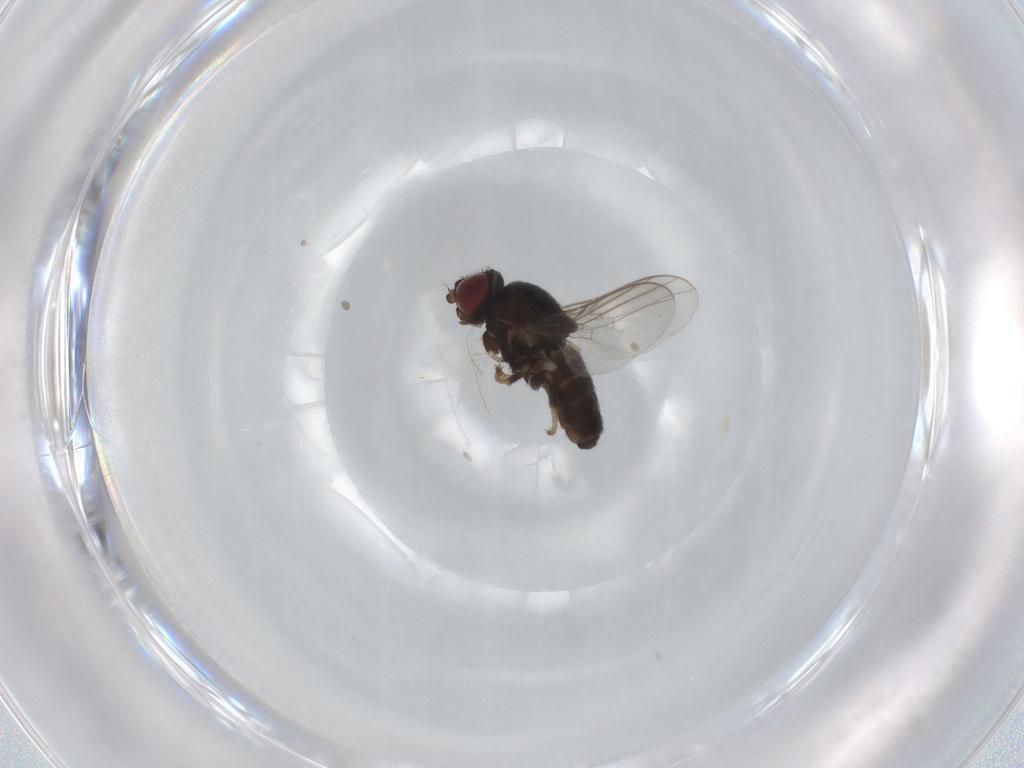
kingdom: Animalia
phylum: Arthropoda
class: Insecta
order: Diptera
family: Chloropidae
